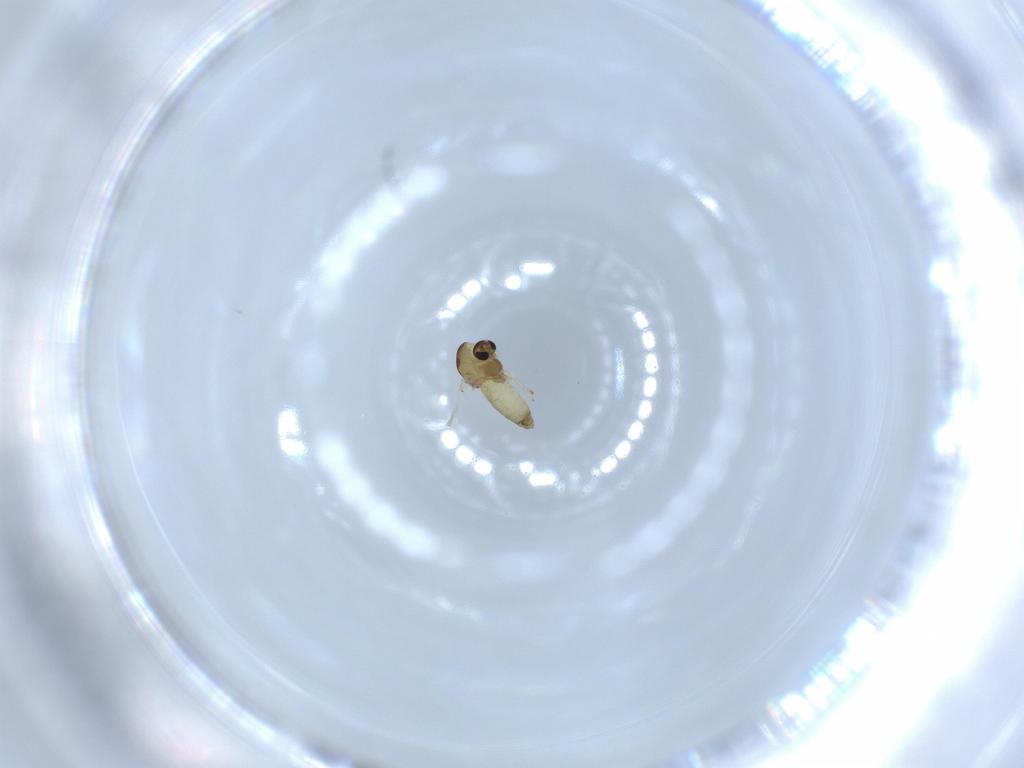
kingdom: Animalia
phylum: Arthropoda
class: Insecta
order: Diptera
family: Chironomidae
